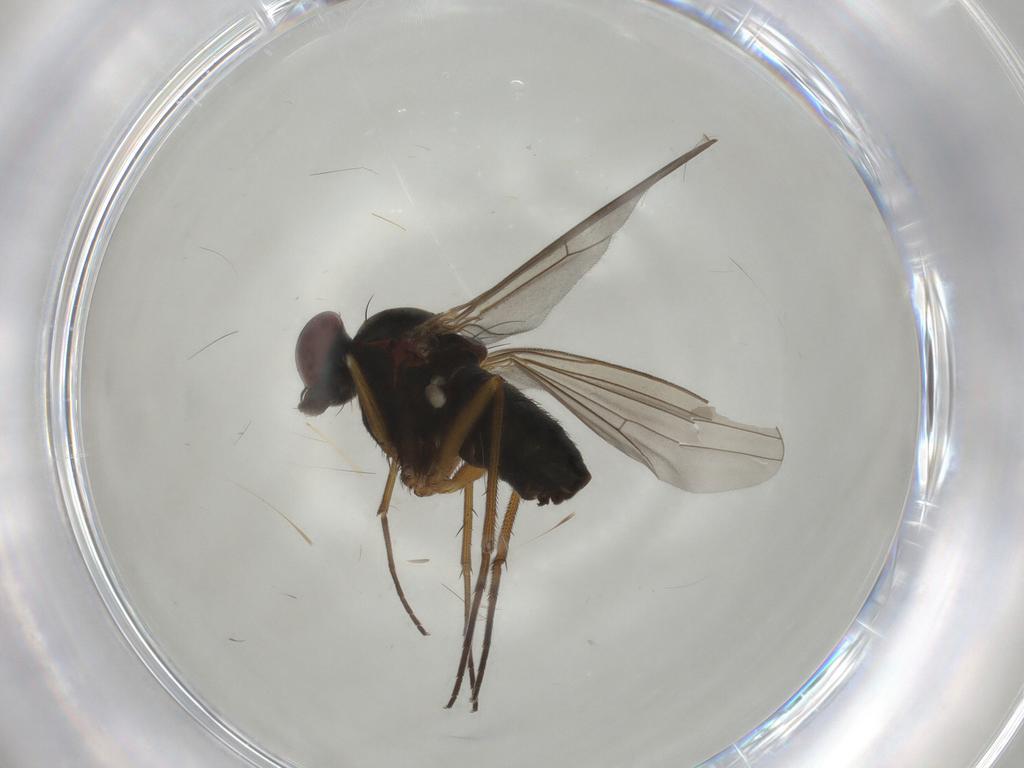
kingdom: Animalia
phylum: Arthropoda
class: Insecta
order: Diptera
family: Dolichopodidae
